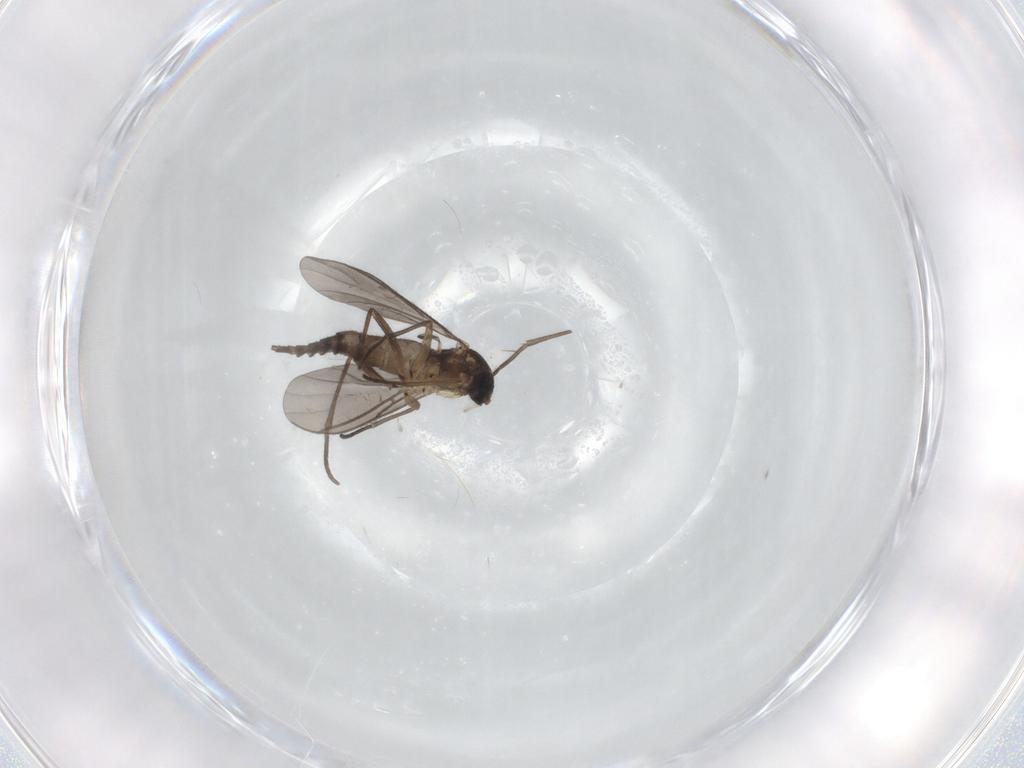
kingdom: Animalia
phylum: Arthropoda
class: Insecta
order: Diptera
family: Sciaridae
